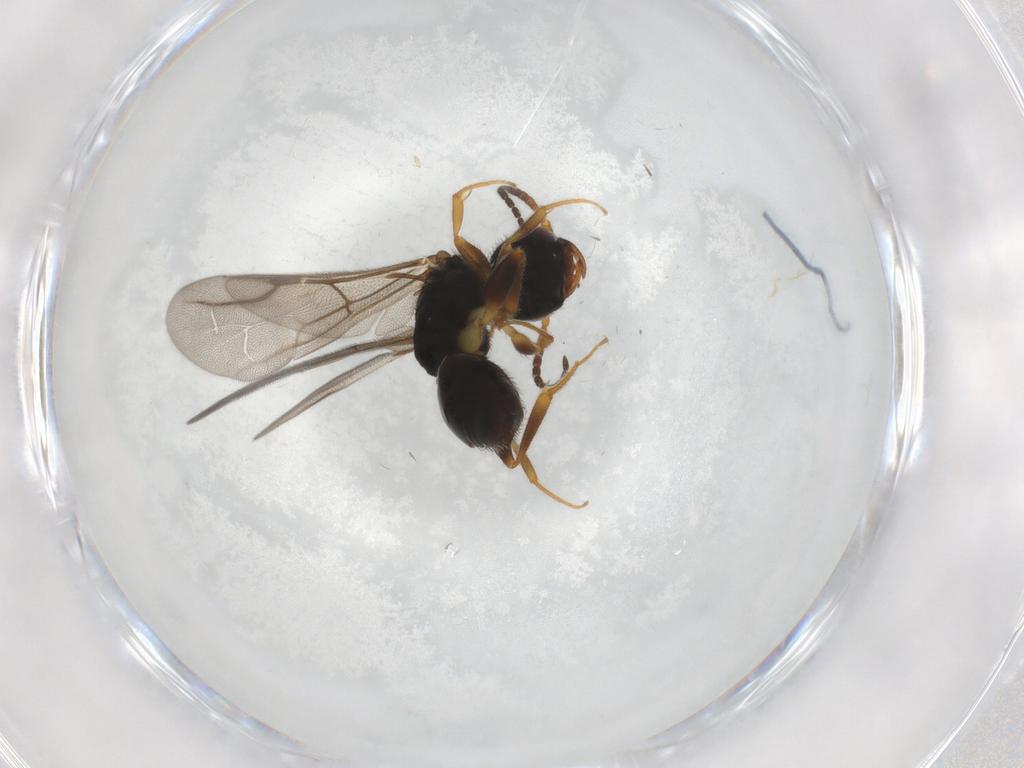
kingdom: Animalia
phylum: Arthropoda
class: Insecta
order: Hymenoptera
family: Bethylidae
